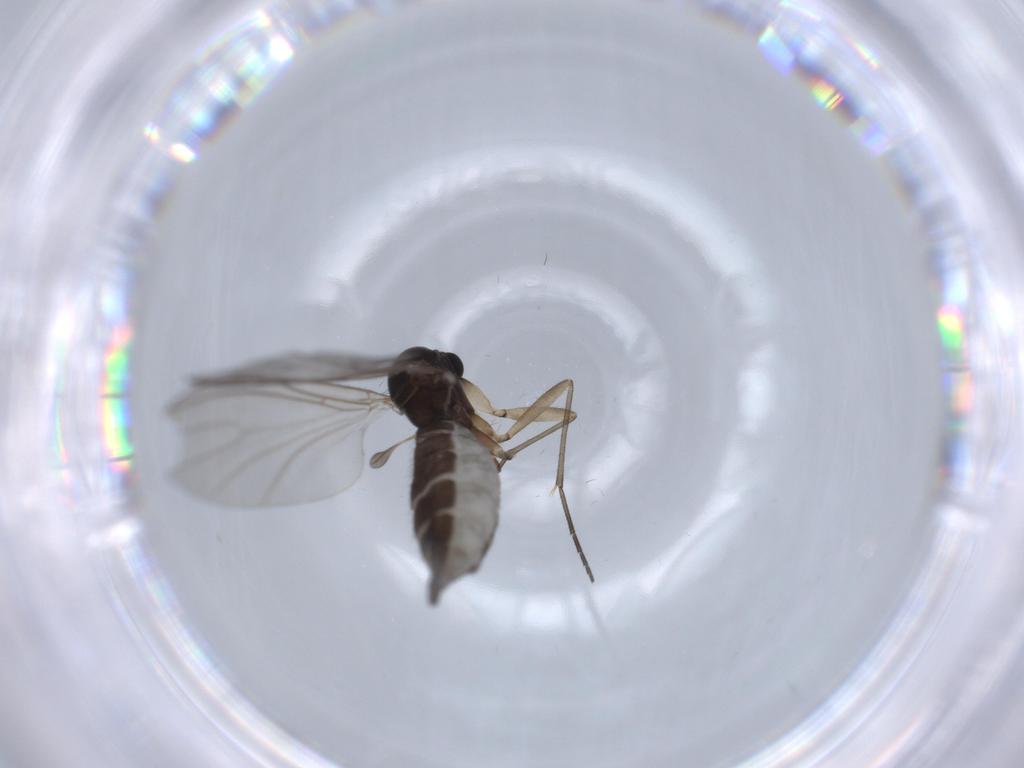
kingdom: Animalia
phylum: Arthropoda
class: Insecta
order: Diptera
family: Sciaridae
